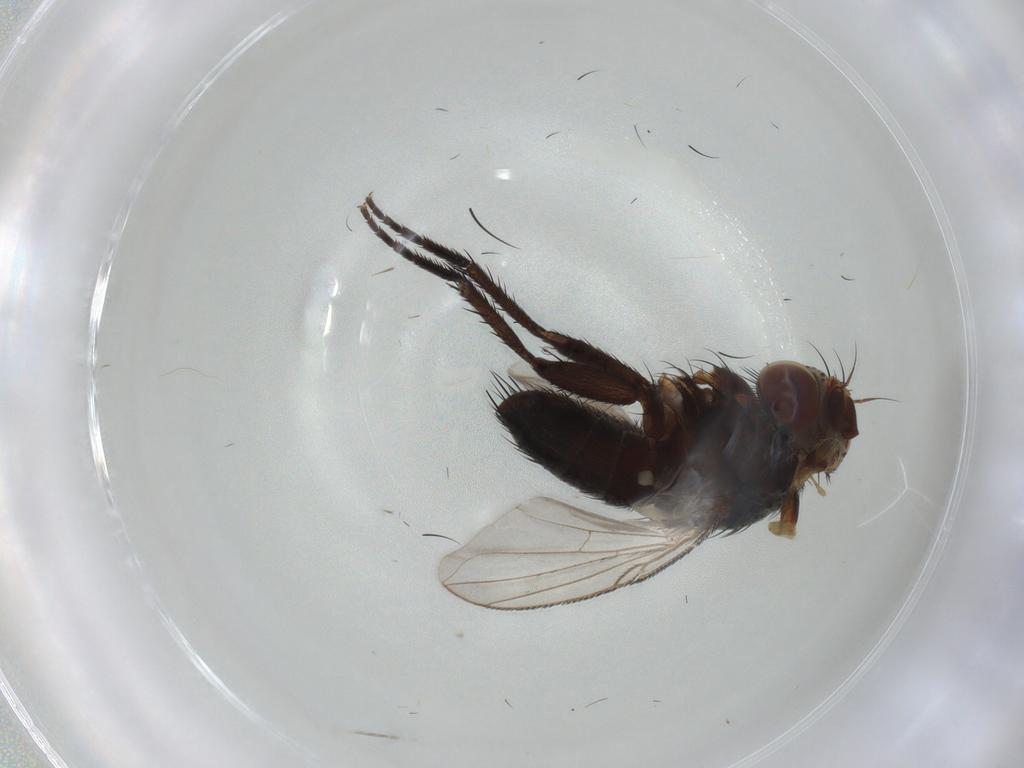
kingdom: Animalia
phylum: Arthropoda
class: Insecta
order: Diptera
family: Tachinidae
